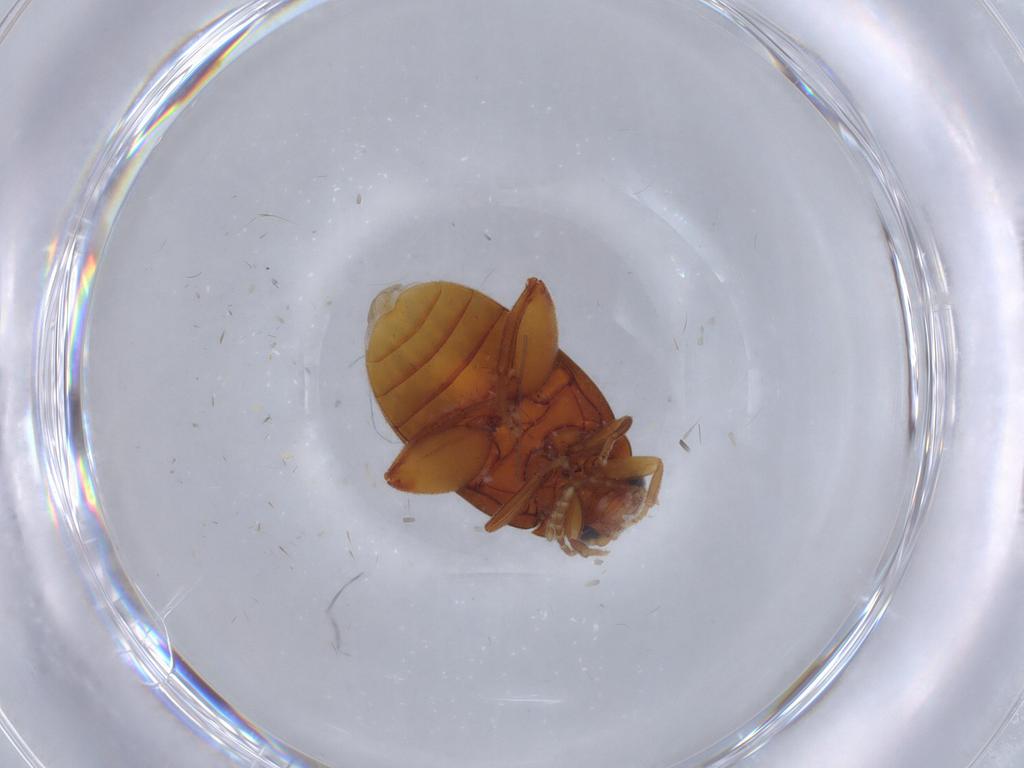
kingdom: Animalia
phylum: Arthropoda
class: Insecta
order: Coleoptera
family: Scirtidae
